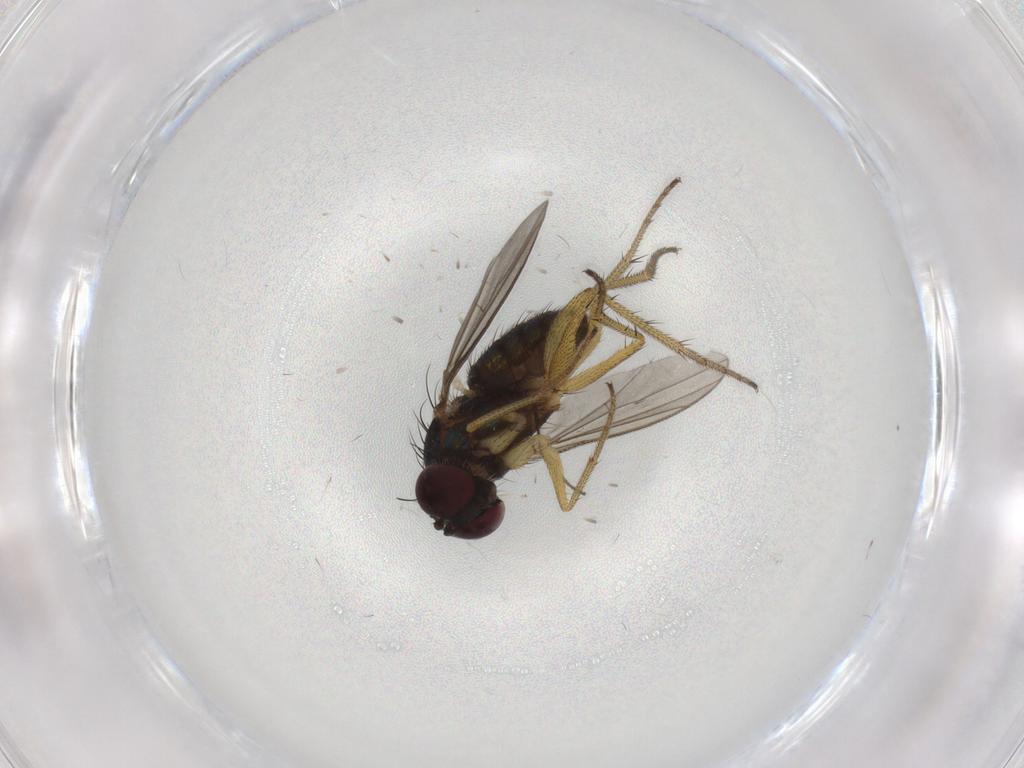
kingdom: Animalia
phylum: Arthropoda
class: Insecta
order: Diptera
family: Dolichopodidae
